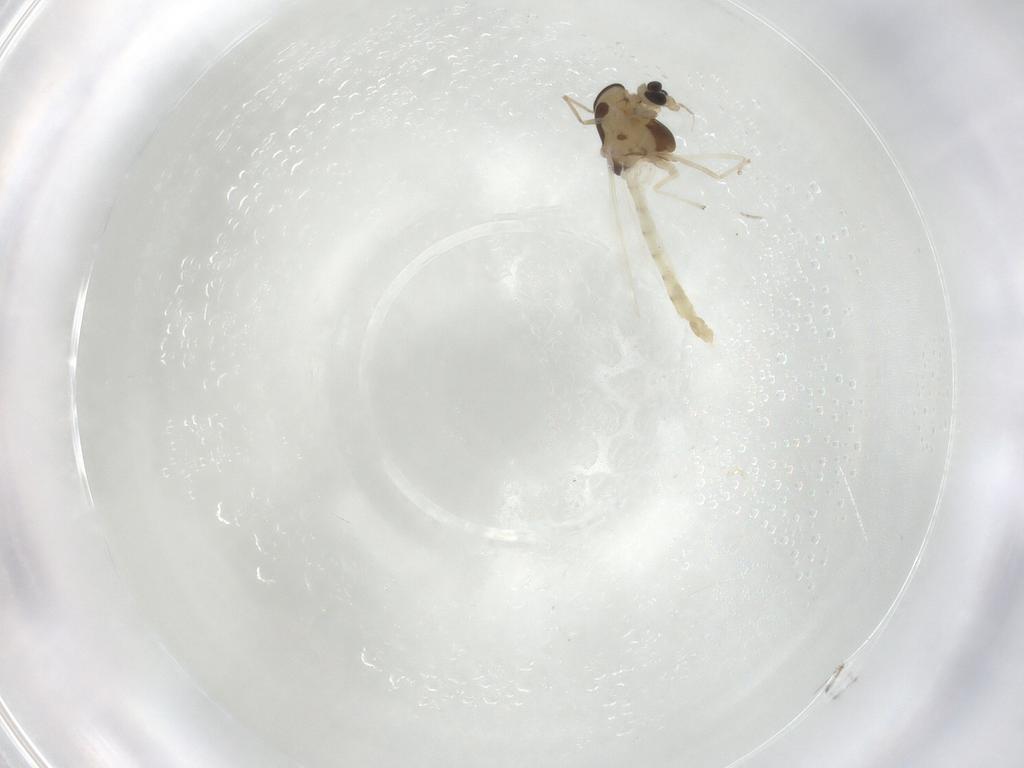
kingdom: Animalia
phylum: Arthropoda
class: Insecta
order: Diptera
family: Chironomidae
